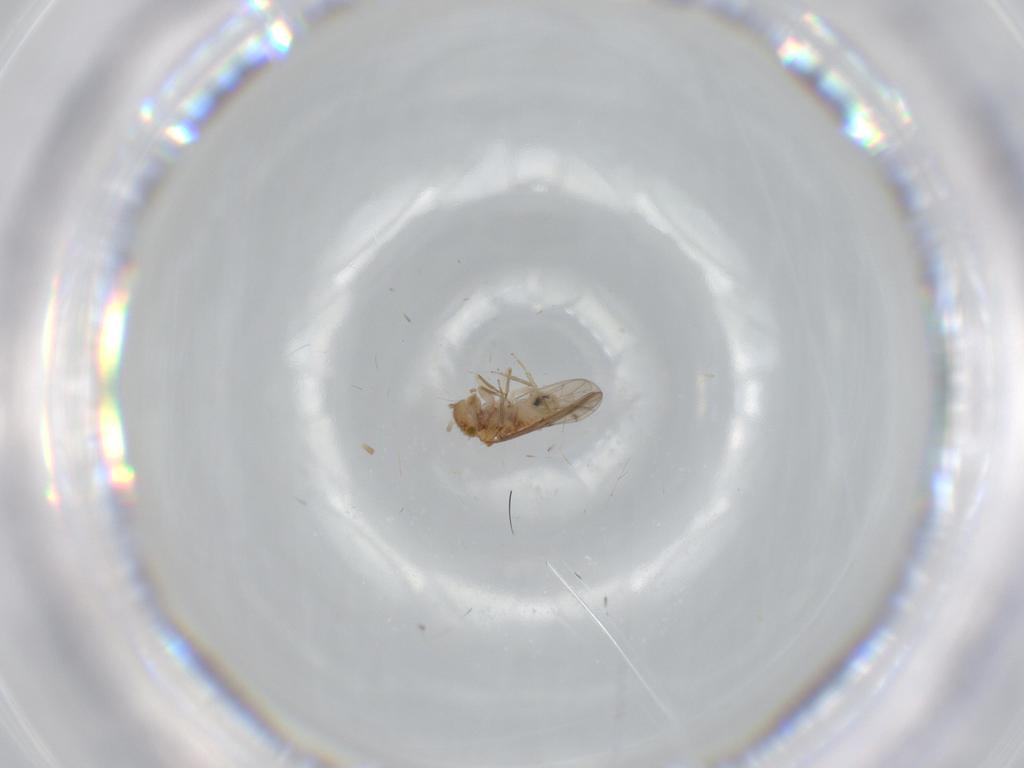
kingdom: Animalia
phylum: Arthropoda
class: Insecta
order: Psocodea
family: Ectopsocidae
